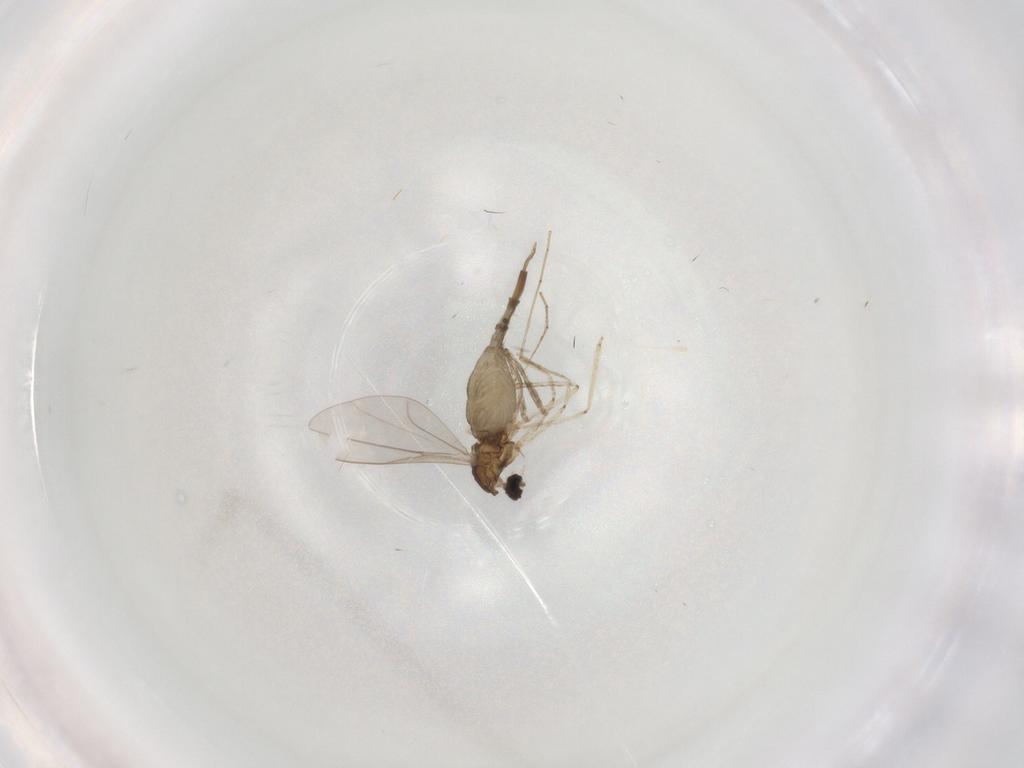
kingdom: Animalia
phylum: Arthropoda
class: Insecta
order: Diptera
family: Cecidomyiidae
